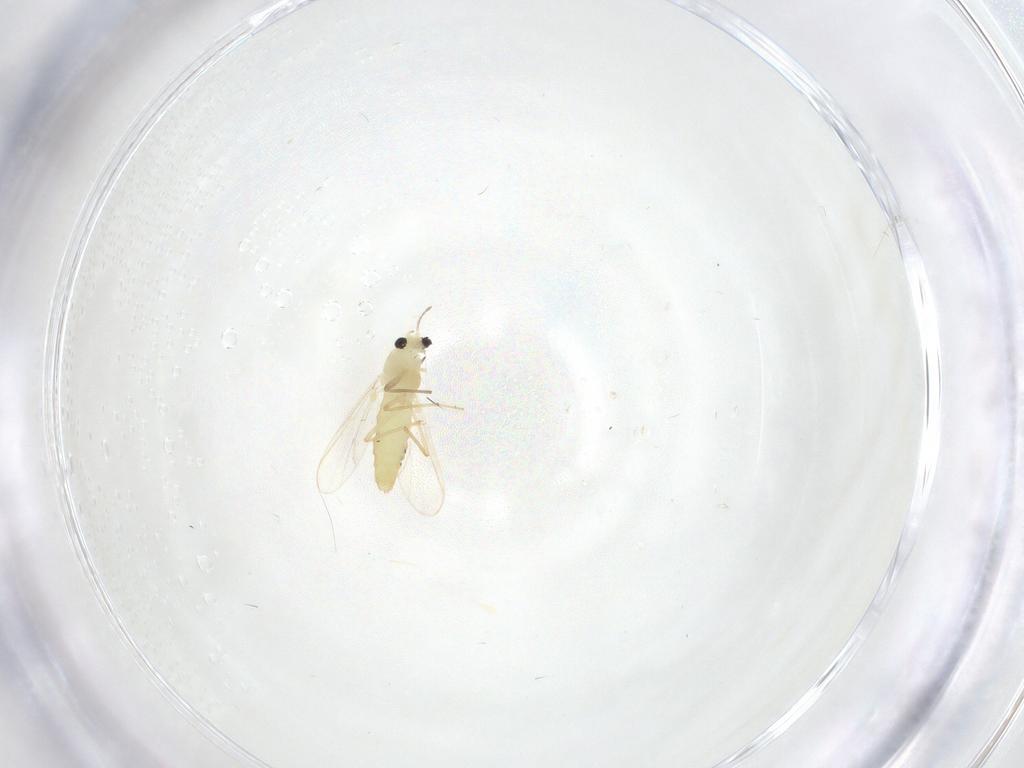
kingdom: Animalia
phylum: Arthropoda
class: Insecta
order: Diptera
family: Chironomidae
